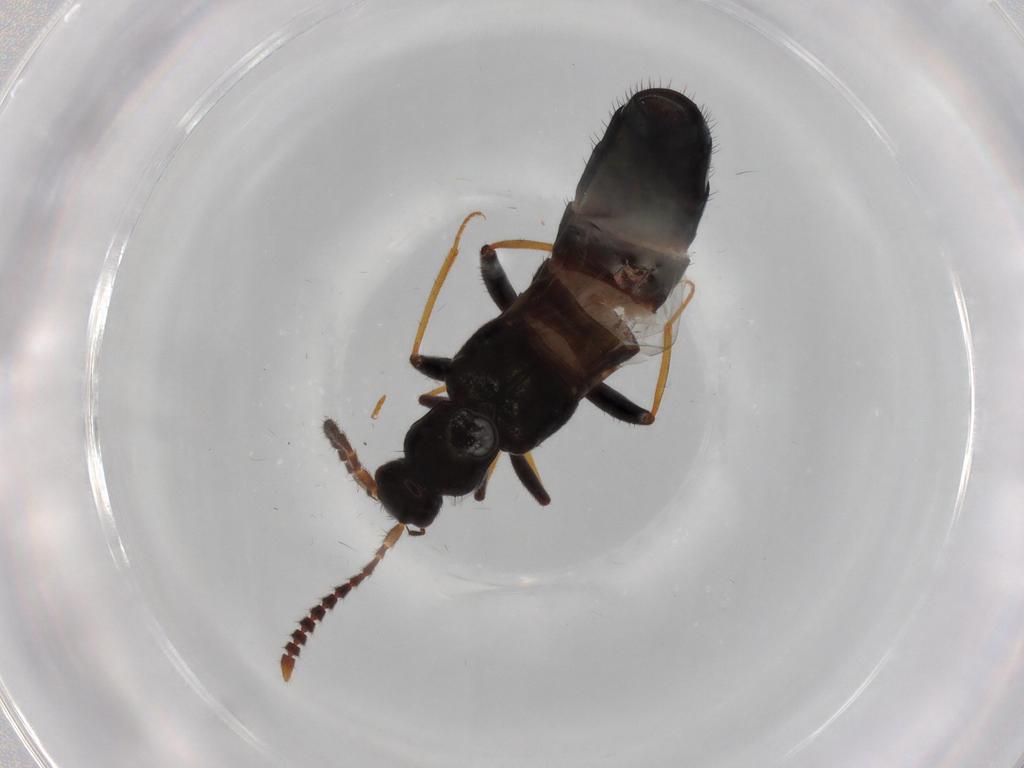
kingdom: Animalia
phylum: Arthropoda
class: Insecta
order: Coleoptera
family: Staphylinidae
